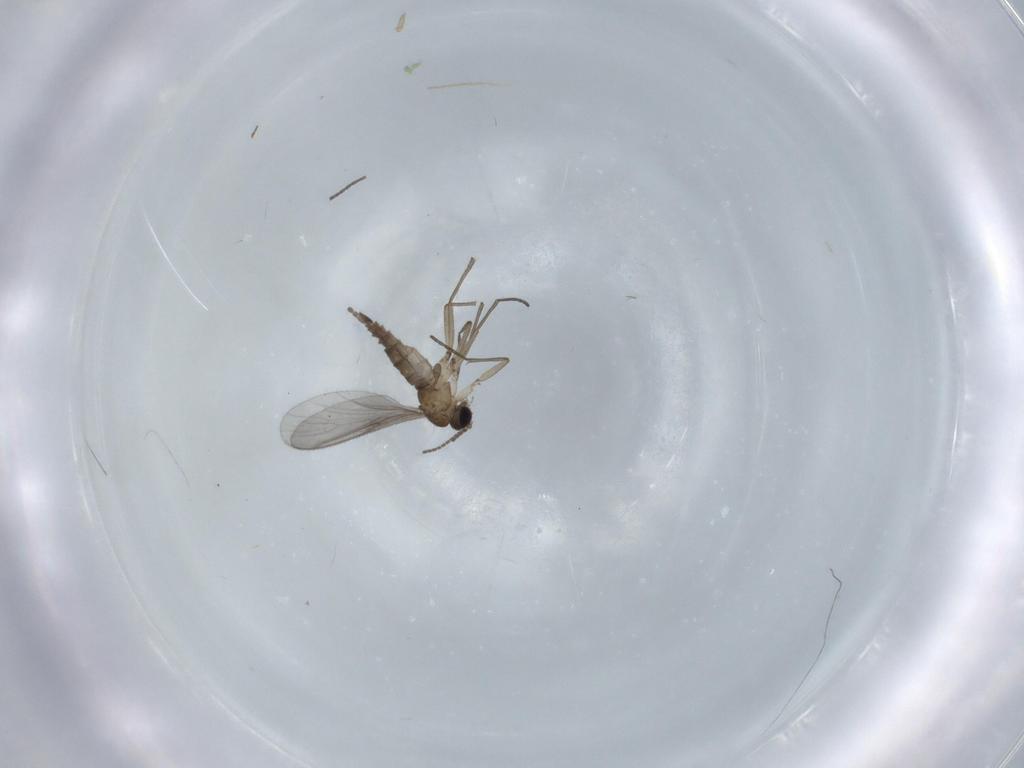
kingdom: Animalia
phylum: Arthropoda
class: Insecta
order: Diptera
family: Sciaridae
